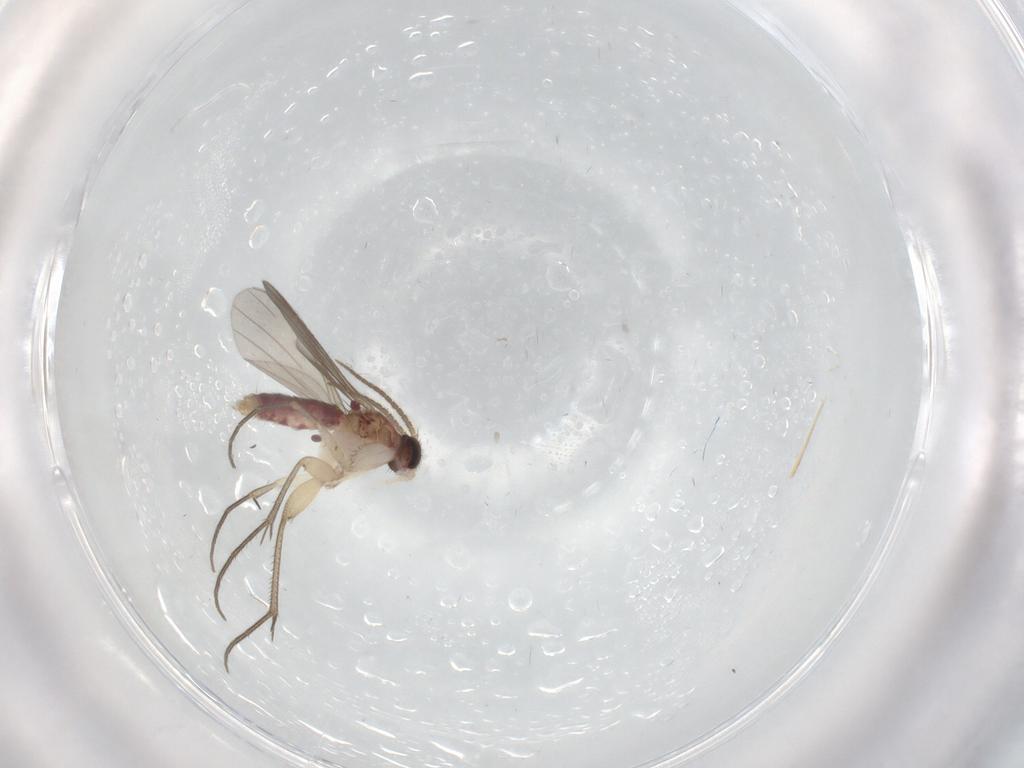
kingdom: Animalia
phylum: Arthropoda
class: Insecta
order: Diptera
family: Mycetophilidae
